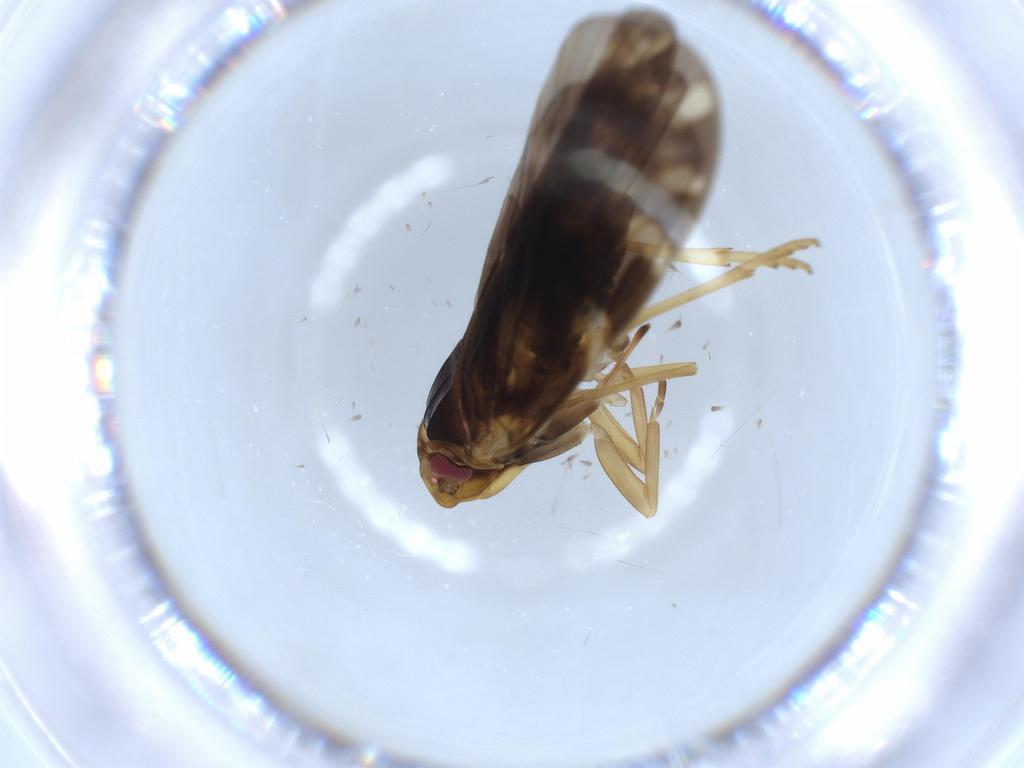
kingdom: Animalia
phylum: Arthropoda
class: Insecta
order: Hemiptera
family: Cixiidae
